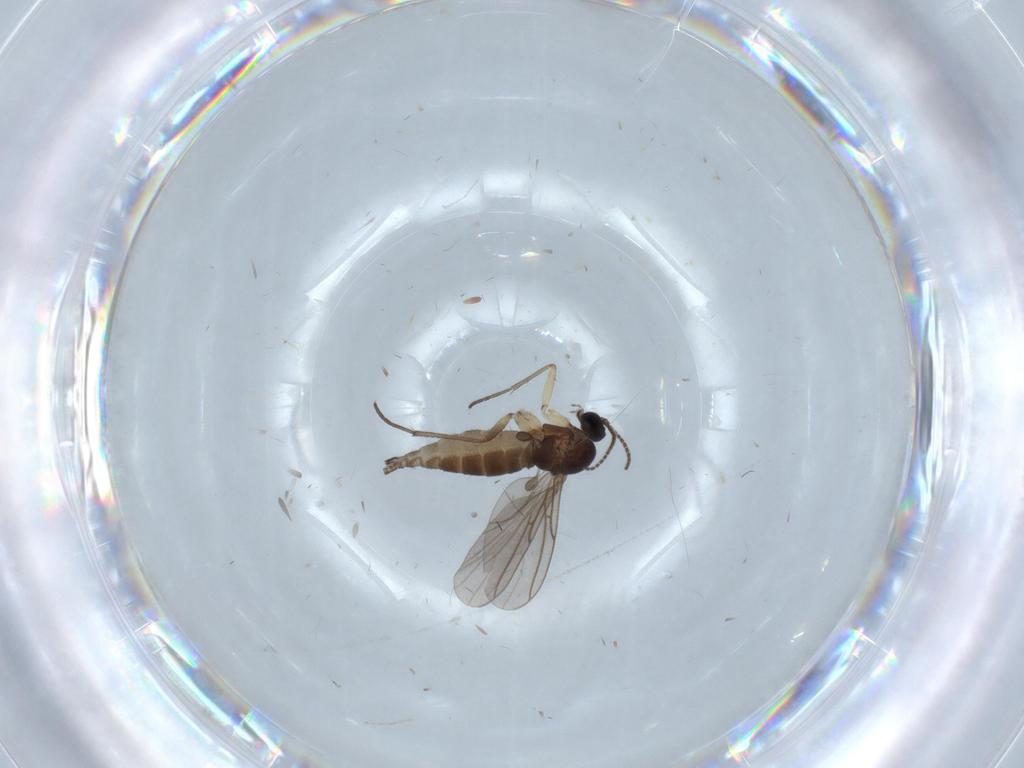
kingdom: Animalia
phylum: Arthropoda
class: Insecta
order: Diptera
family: Sciaridae
